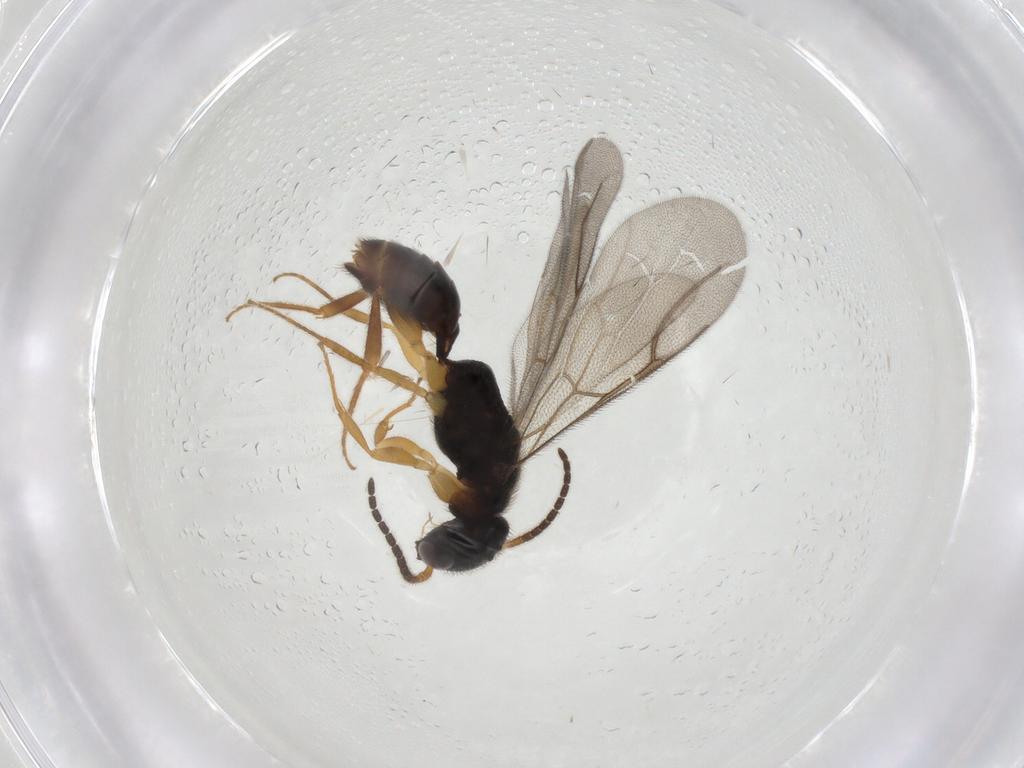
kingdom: Animalia
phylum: Arthropoda
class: Insecta
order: Hymenoptera
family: Bethylidae
